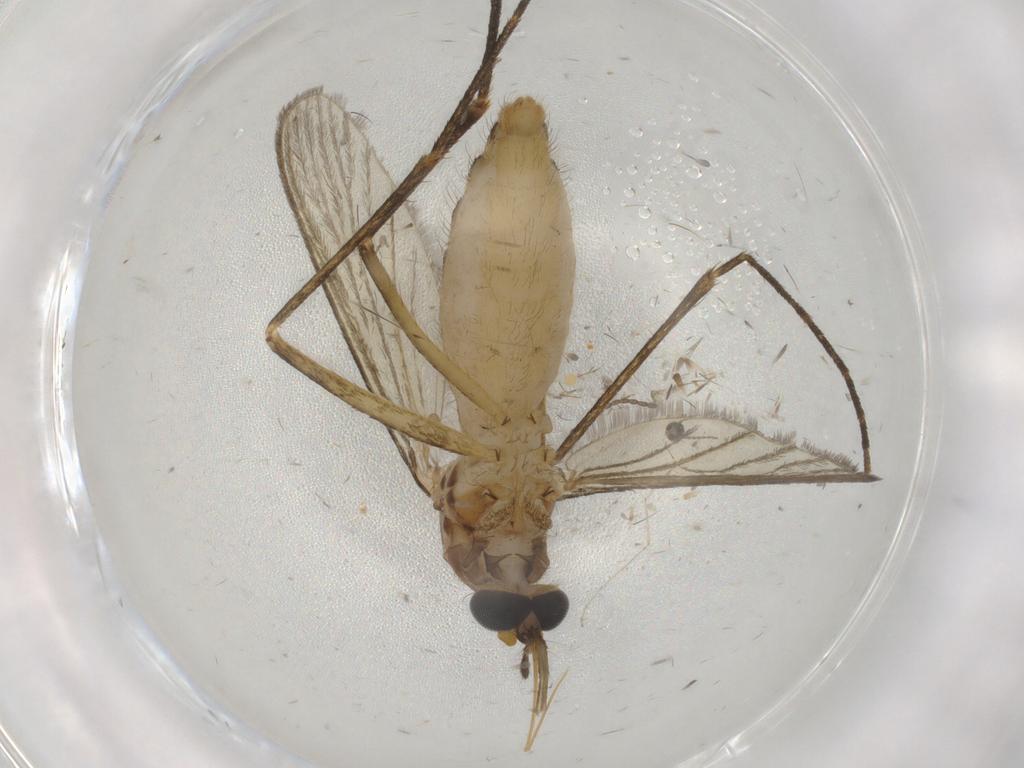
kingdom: Animalia
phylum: Arthropoda
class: Insecta
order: Diptera
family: Culicidae
